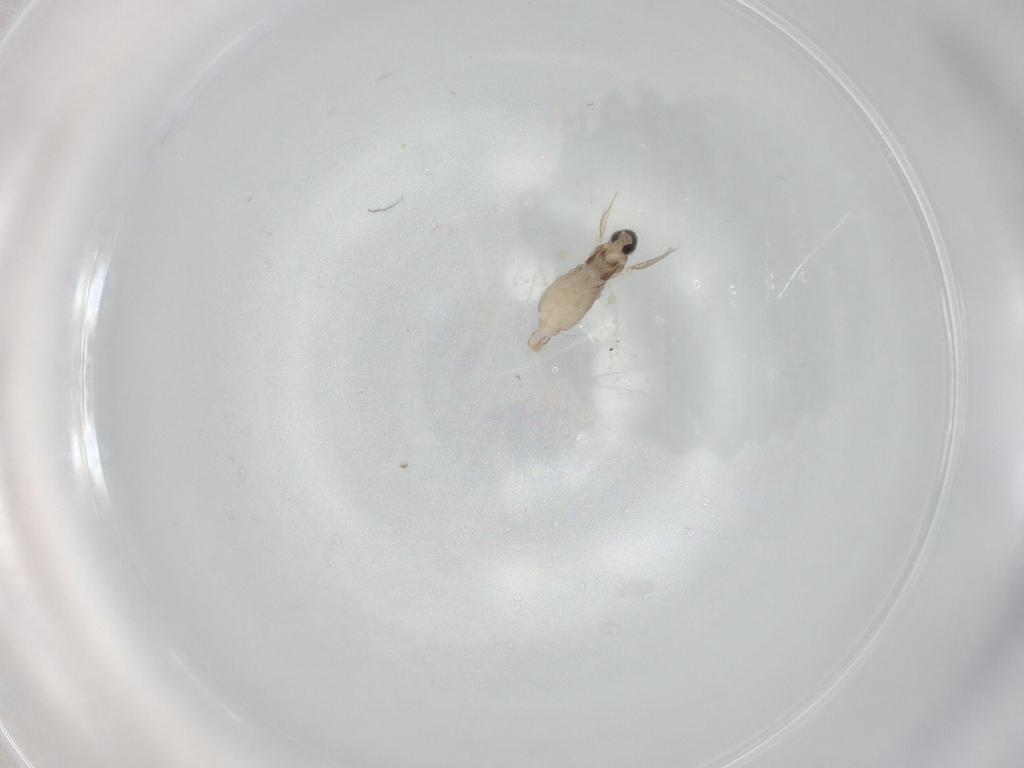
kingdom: Animalia
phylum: Arthropoda
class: Insecta
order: Diptera
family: Cecidomyiidae
